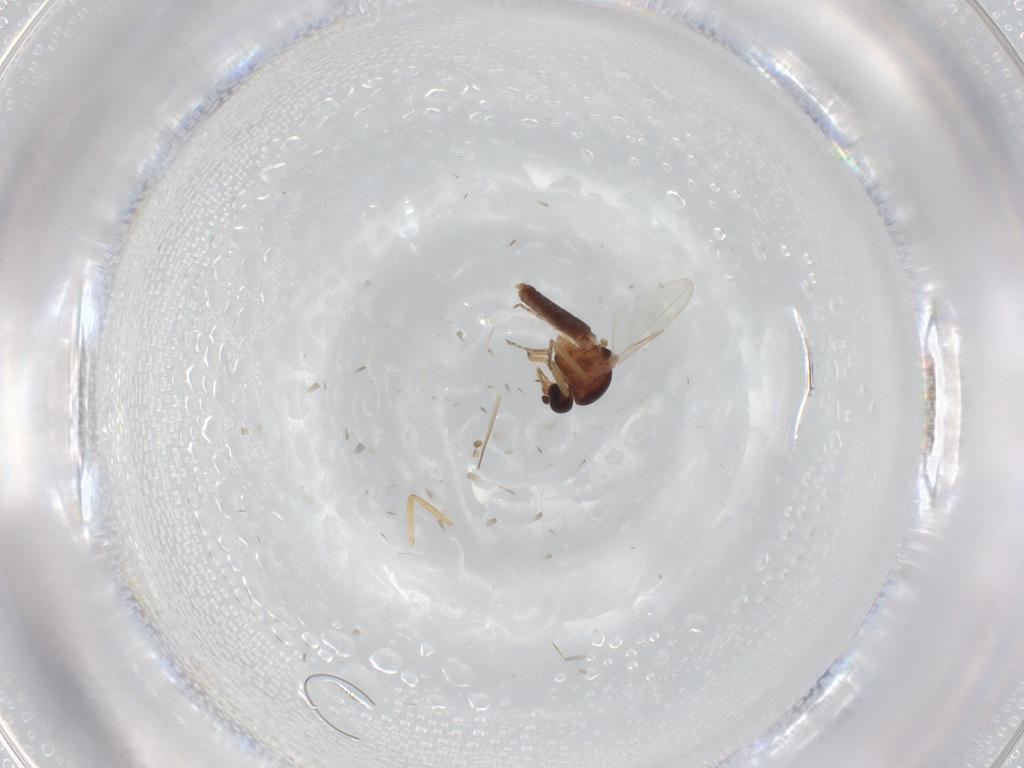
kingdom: Animalia
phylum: Arthropoda
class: Insecta
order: Diptera
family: Ceratopogonidae
